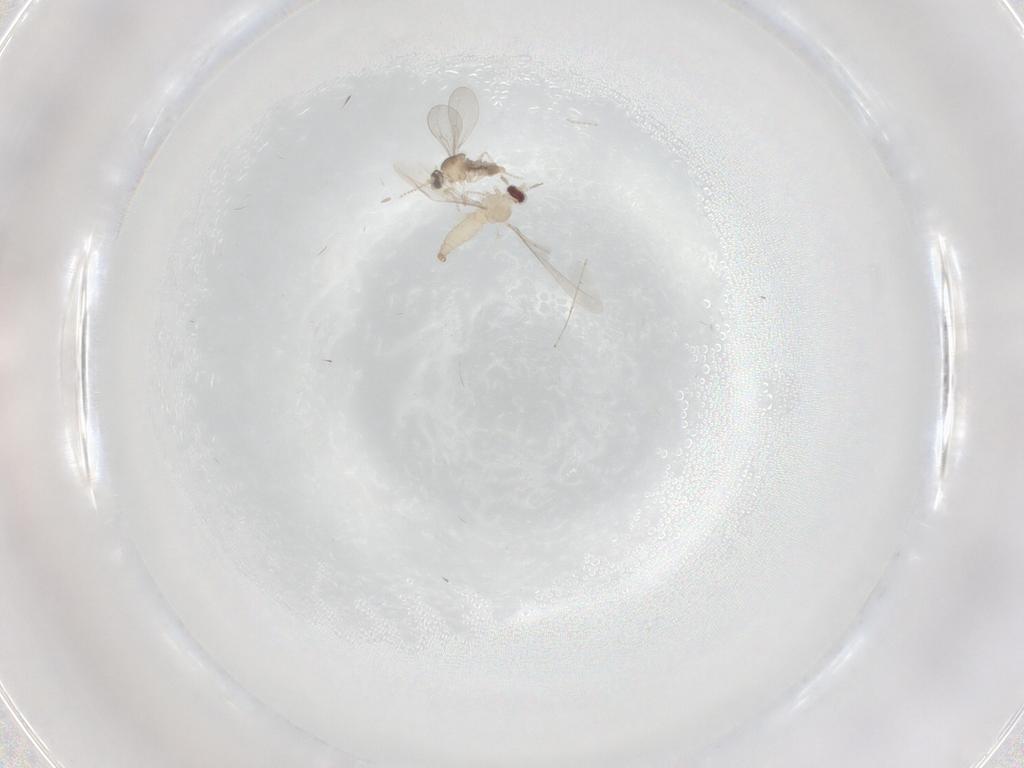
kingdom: Animalia
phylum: Arthropoda
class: Insecta
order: Diptera
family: Cecidomyiidae
